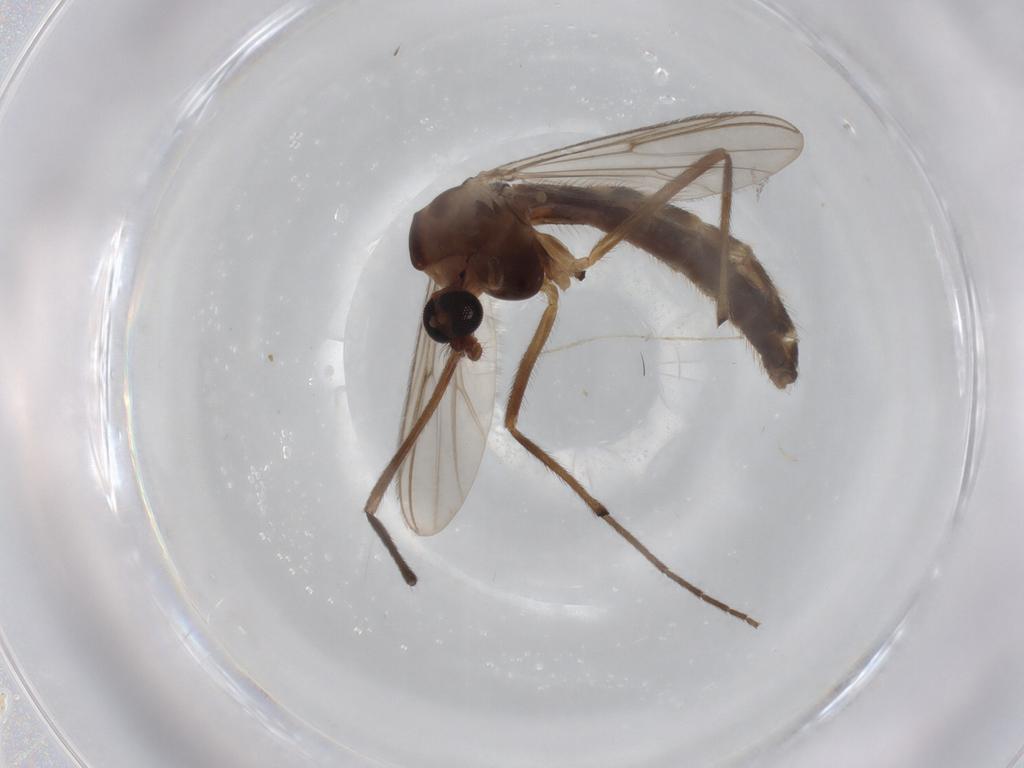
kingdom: Animalia
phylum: Arthropoda
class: Insecta
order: Diptera
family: Chironomidae
